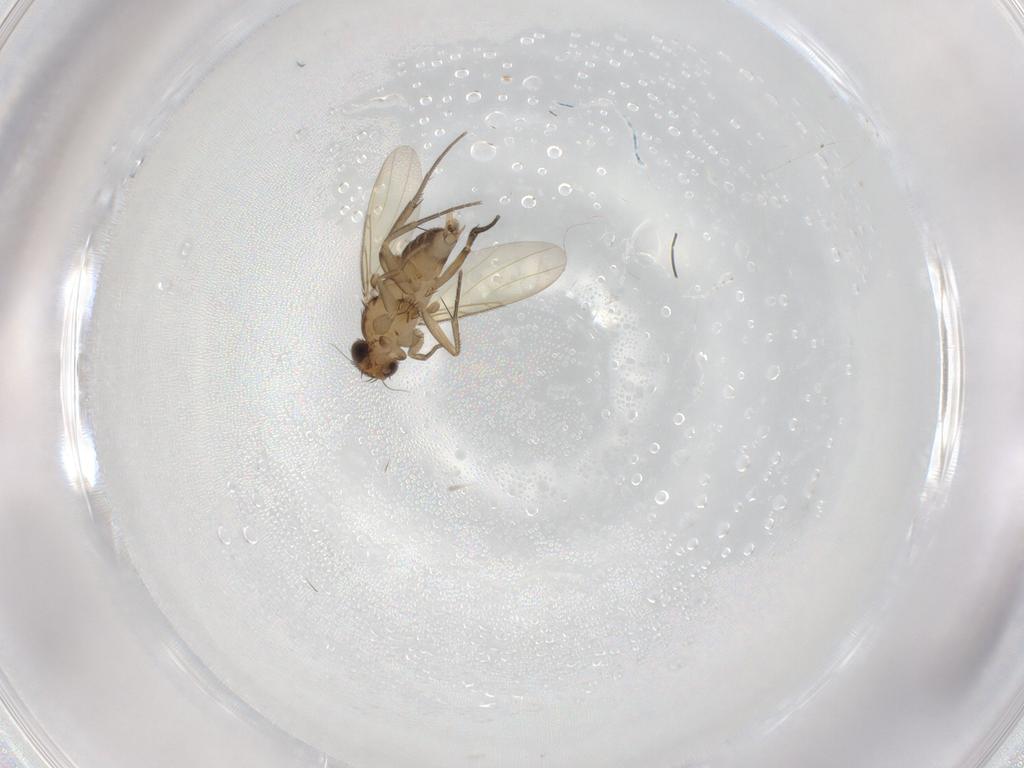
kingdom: Animalia
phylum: Arthropoda
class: Insecta
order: Diptera
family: Phoridae
